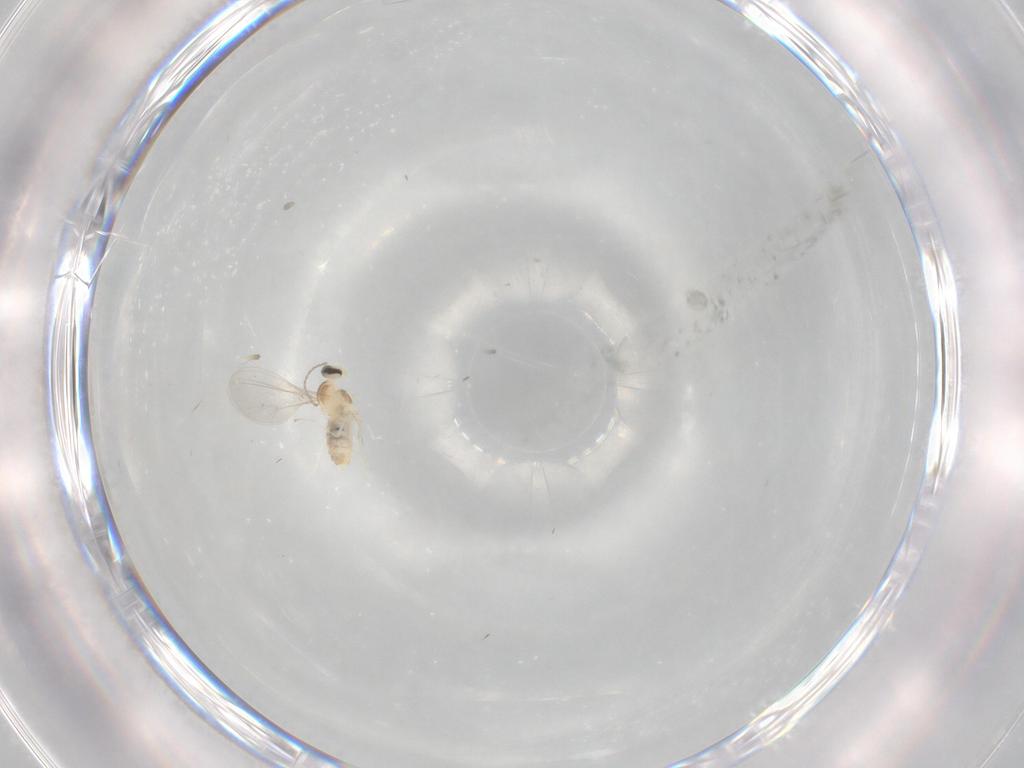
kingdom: Animalia
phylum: Arthropoda
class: Insecta
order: Diptera
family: Cecidomyiidae
